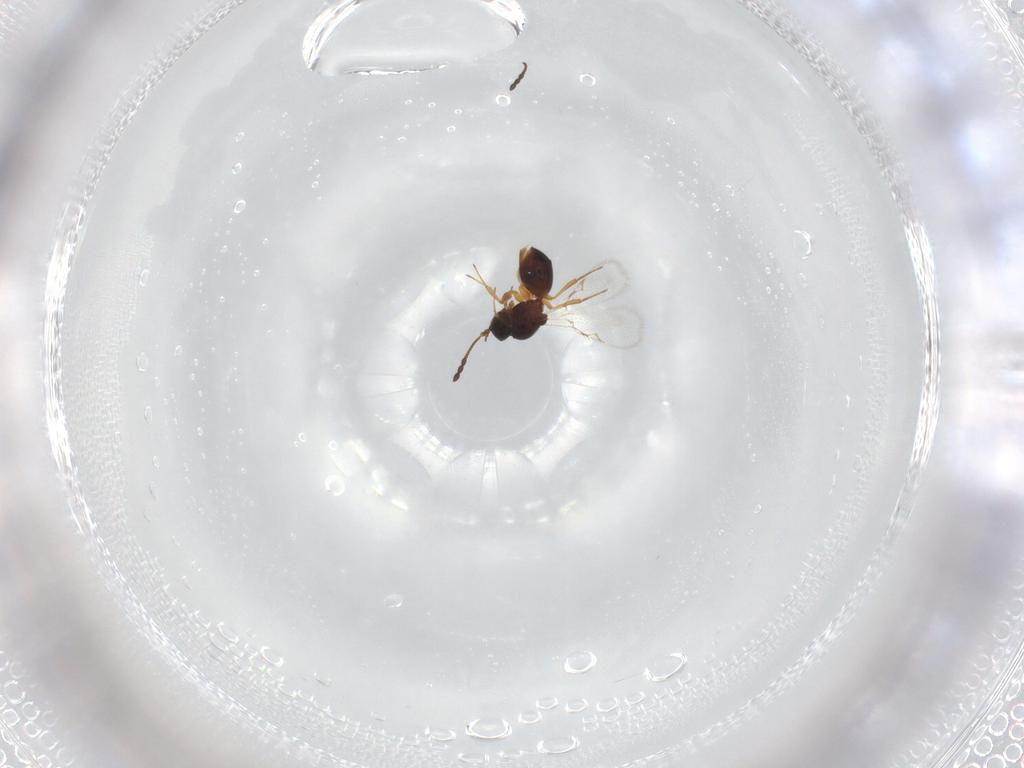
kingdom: Animalia
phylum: Arthropoda
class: Insecta
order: Hymenoptera
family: Figitidae
